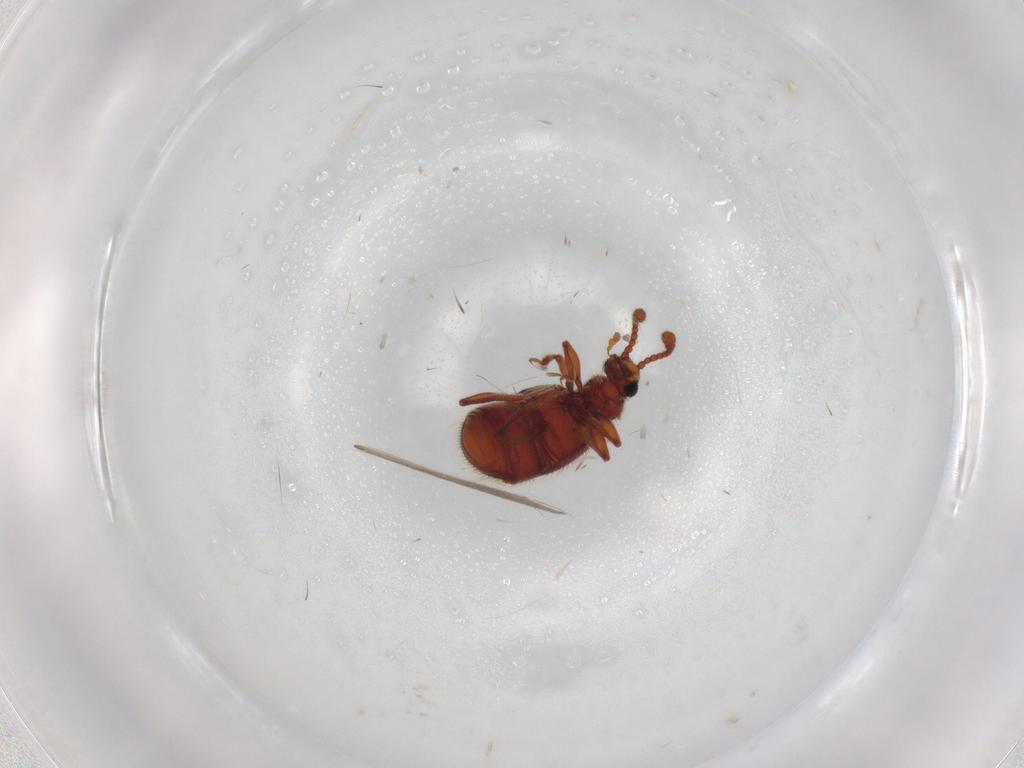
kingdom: Animalia
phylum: Arthropoda
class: Insecta
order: Coleoptera
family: Staphylinidae
